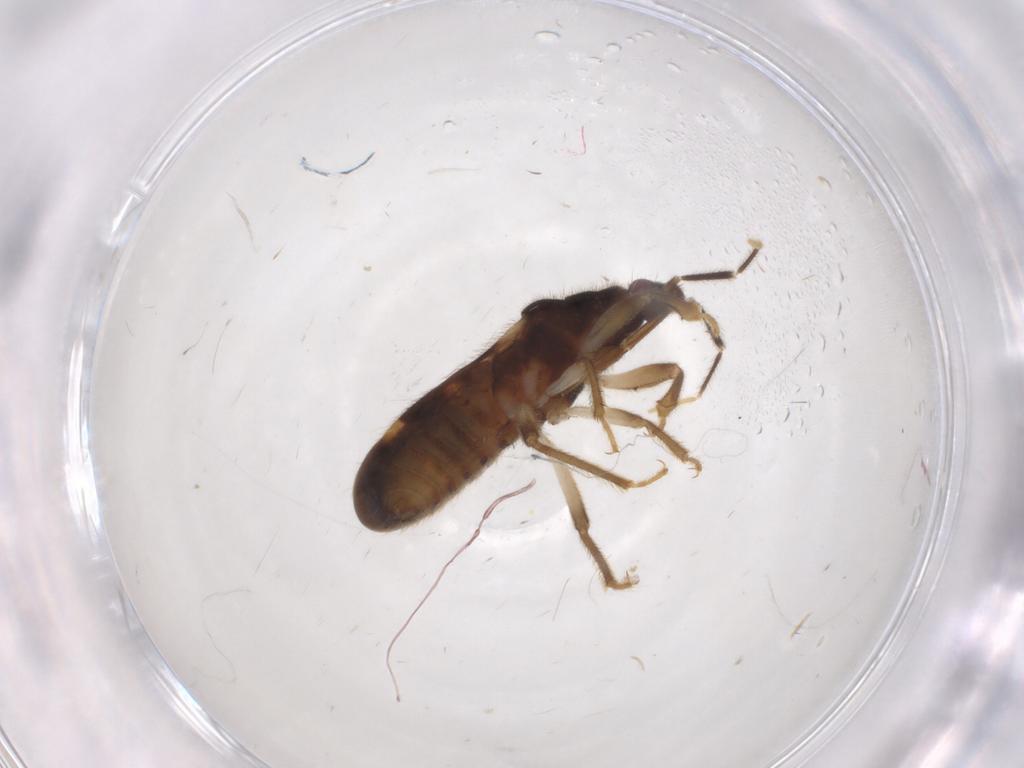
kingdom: Animalia
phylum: Arthropoda
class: Insecta
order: Hemiptera
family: Nabidae
